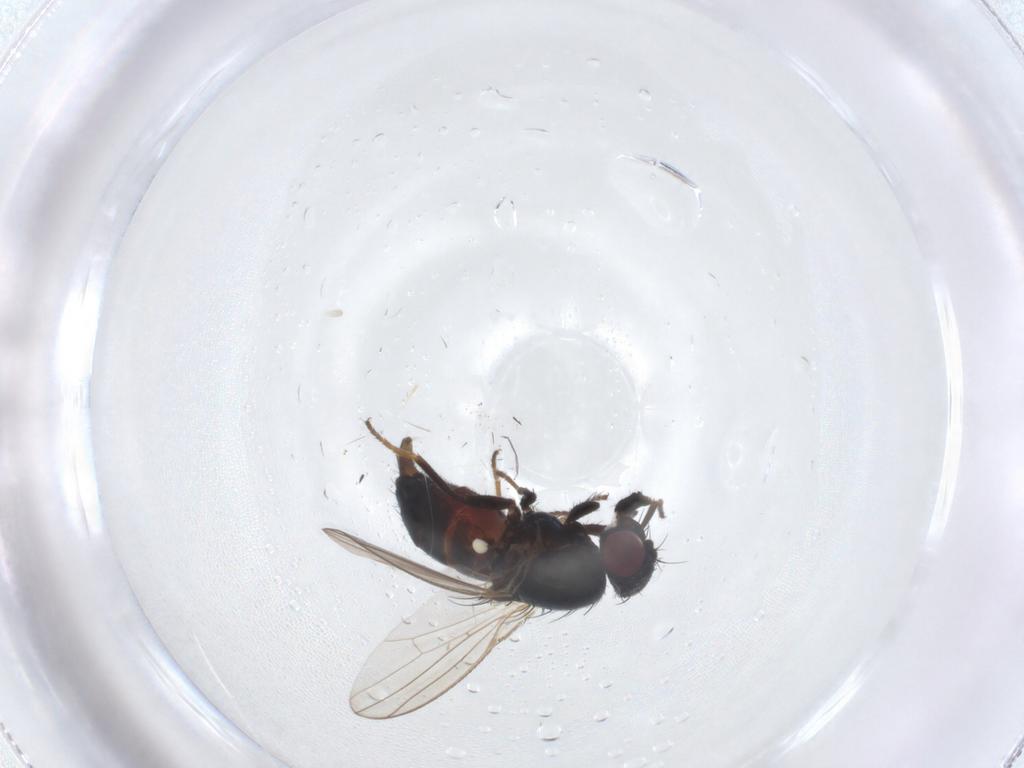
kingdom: Animalia
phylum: Arthropoda
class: Insecta
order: Diptera
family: Carnidae
